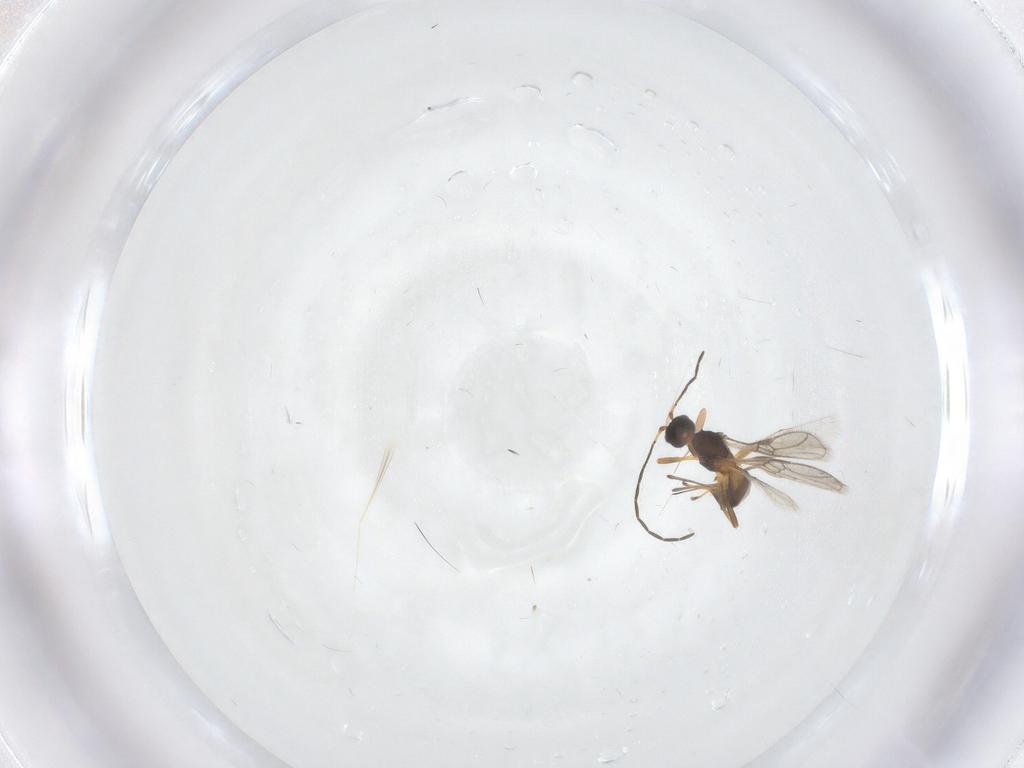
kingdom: Animalia
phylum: Arthropoda
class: Insecta
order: Hymenoptera
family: Braconidae
